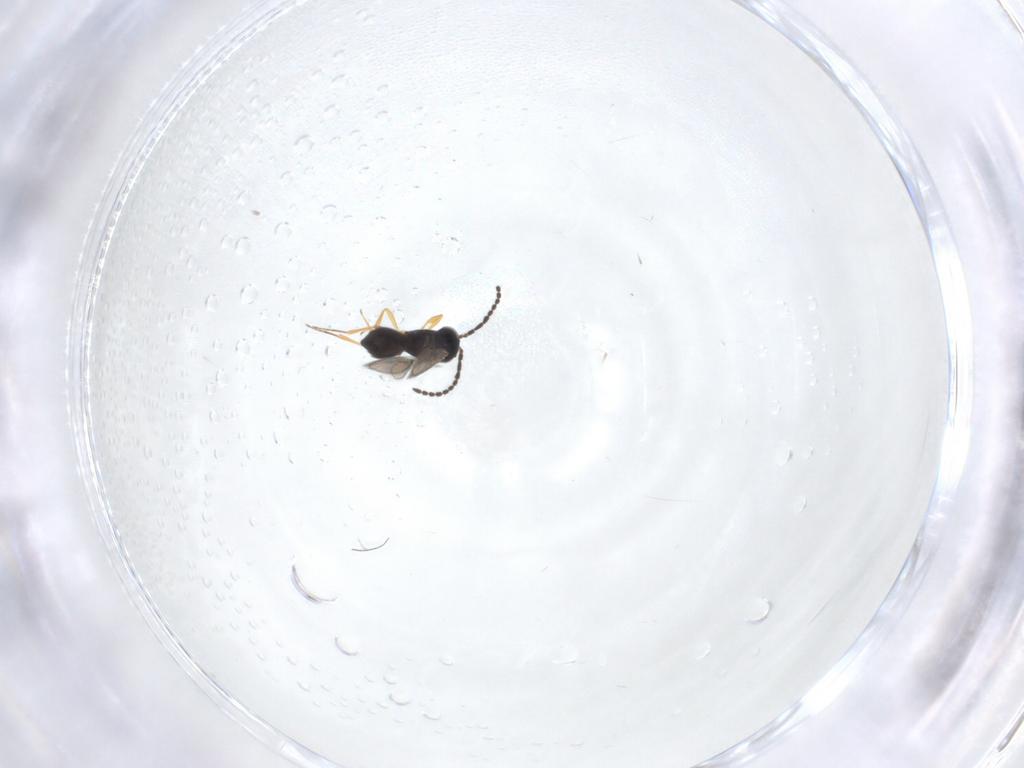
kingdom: Animalia
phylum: Arthropoda
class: Insecta
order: Hymenoptera
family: Scelionidae
